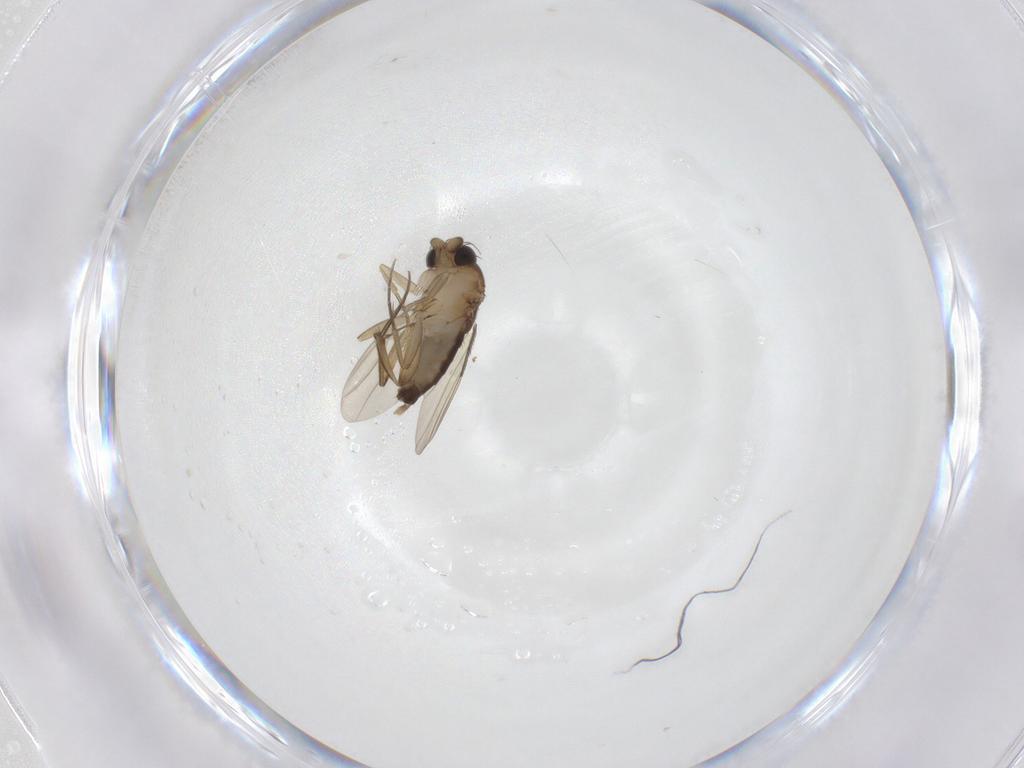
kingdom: Animalia
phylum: Arthropoda
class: Insecta
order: Diptera
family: Phoridae
